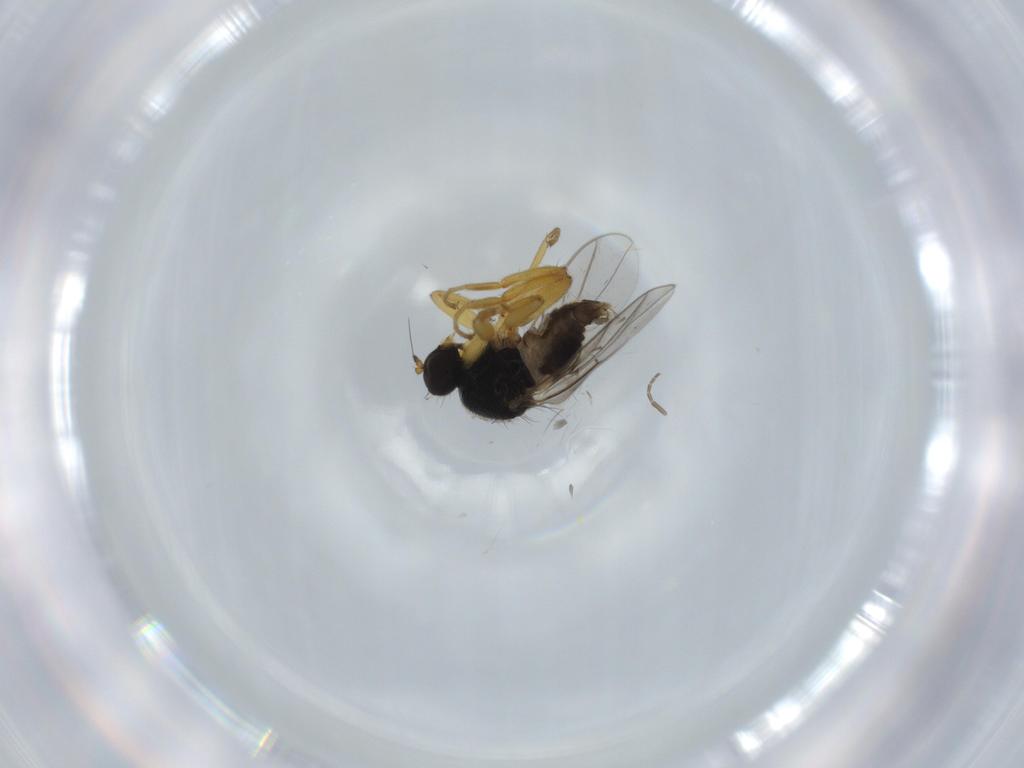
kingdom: Animalia
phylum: Arthropoda
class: Insecta
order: Diptera
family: Hybotidae
